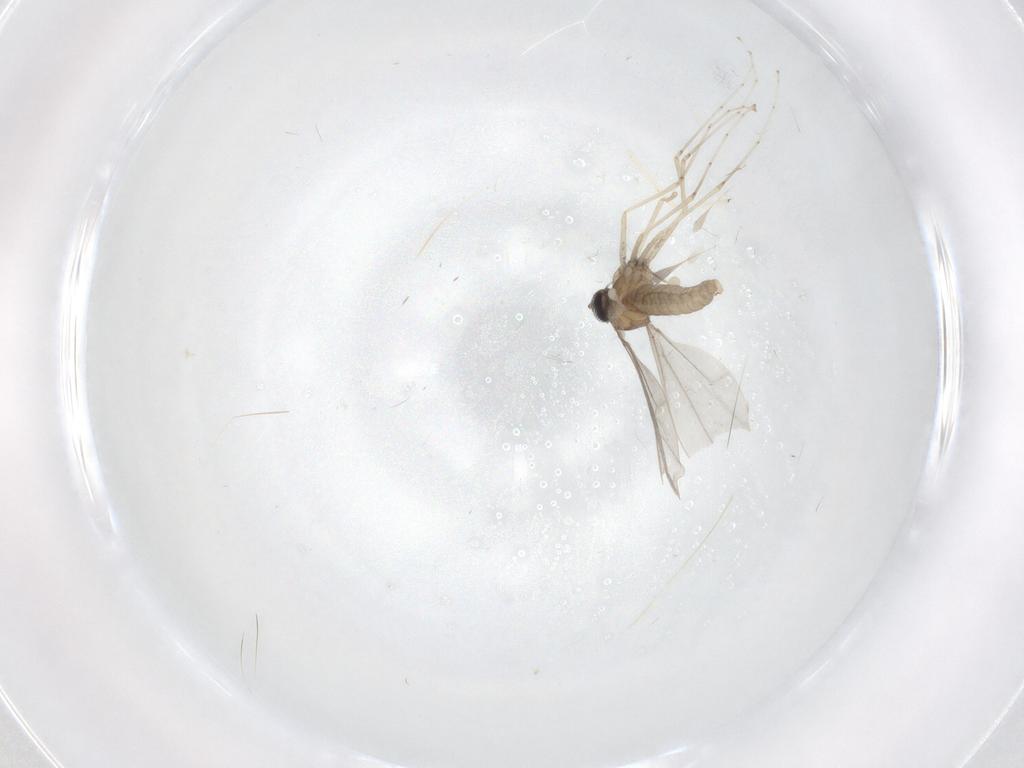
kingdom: Animalia
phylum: Arthropoda
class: Insecta
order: Diptera
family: Cecidomyiidae
